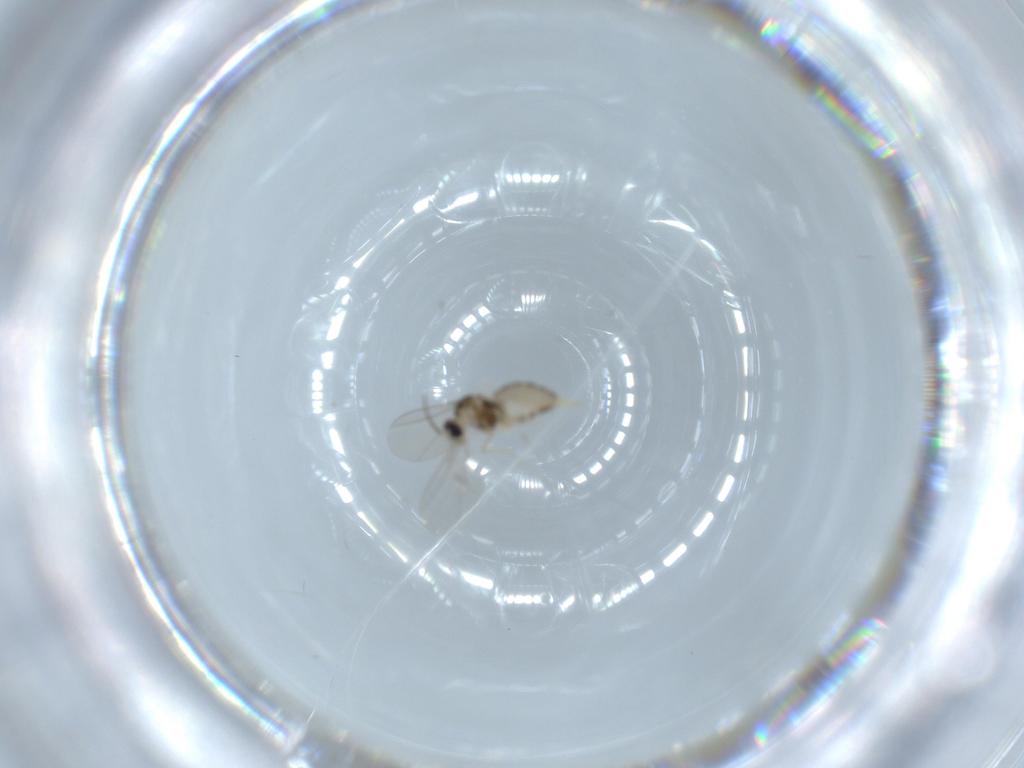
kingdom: Animalia
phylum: Arthropoda
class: Insecta
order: Diptera
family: Cecidomyiidae
